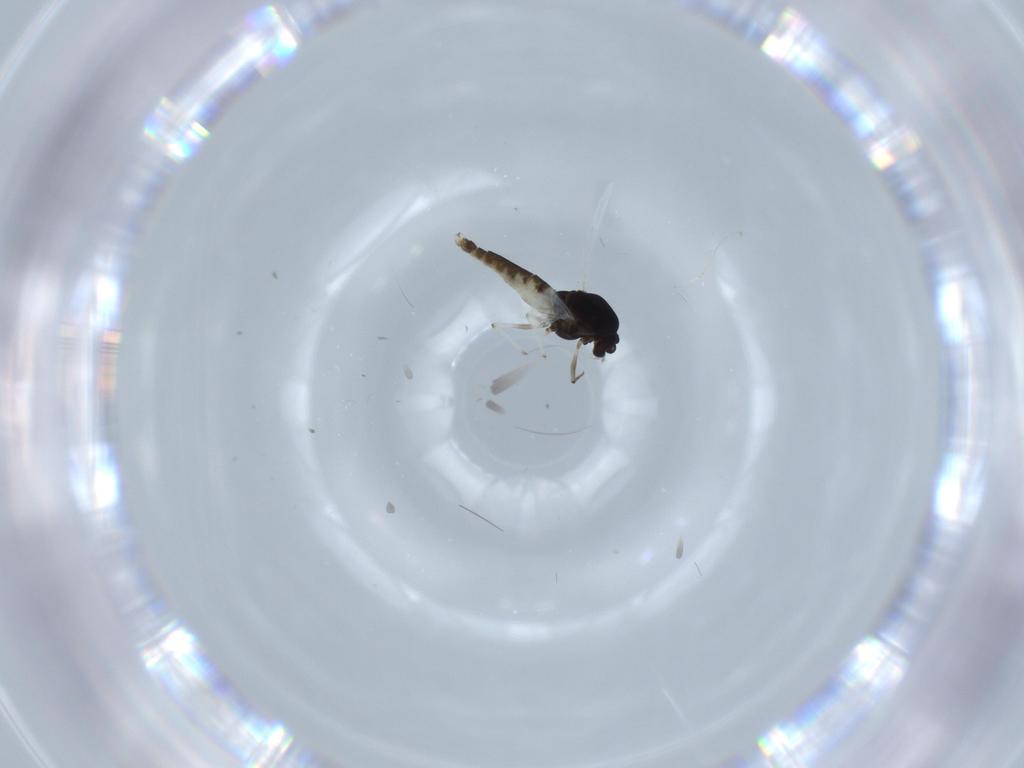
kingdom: Animalia
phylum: Arthropoda
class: Insecta
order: Diptera
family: Chironomidae
